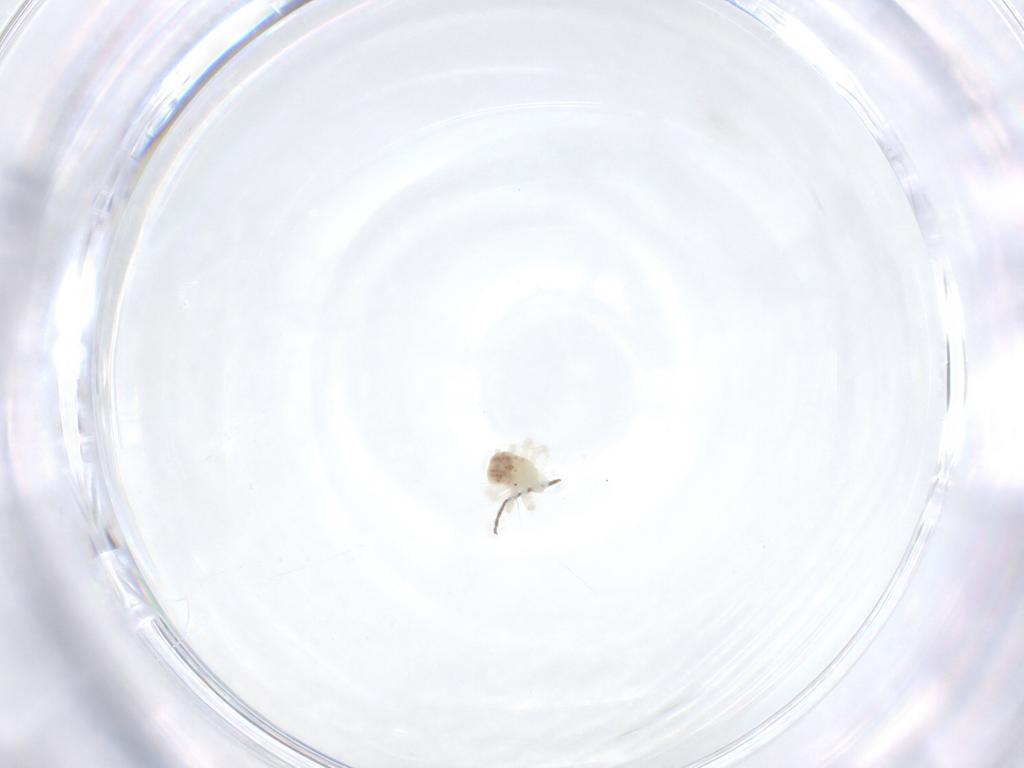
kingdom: Animalia
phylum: Arthropoda
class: Arachnida
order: Trombidiformes
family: Anystidae
